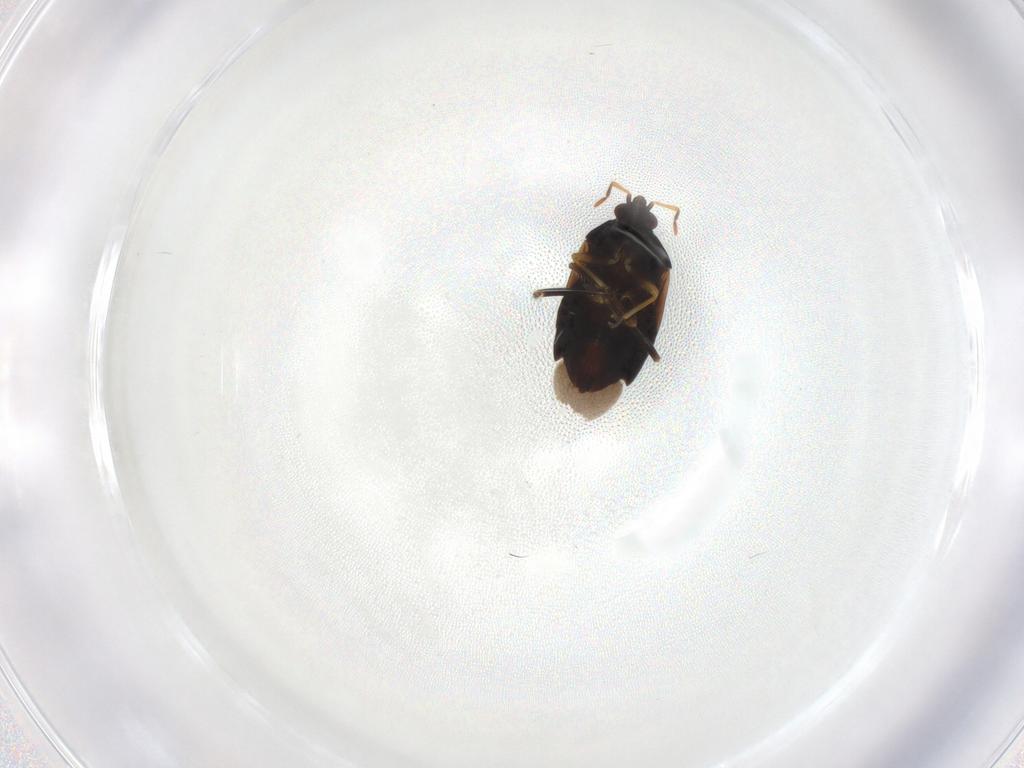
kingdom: Animalia
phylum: Arthropoda
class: Insecta
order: Hemiptera
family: Anthocoridae
